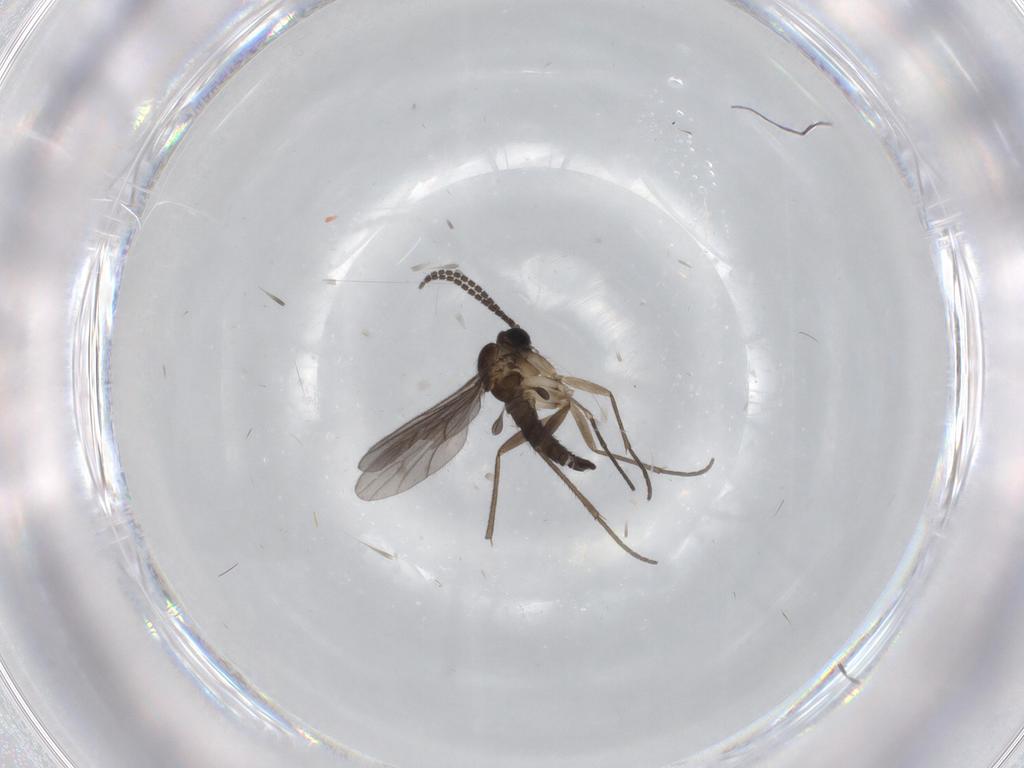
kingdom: Animalia
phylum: Arthropoda
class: Insecta
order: Diptera
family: Sciaridae
